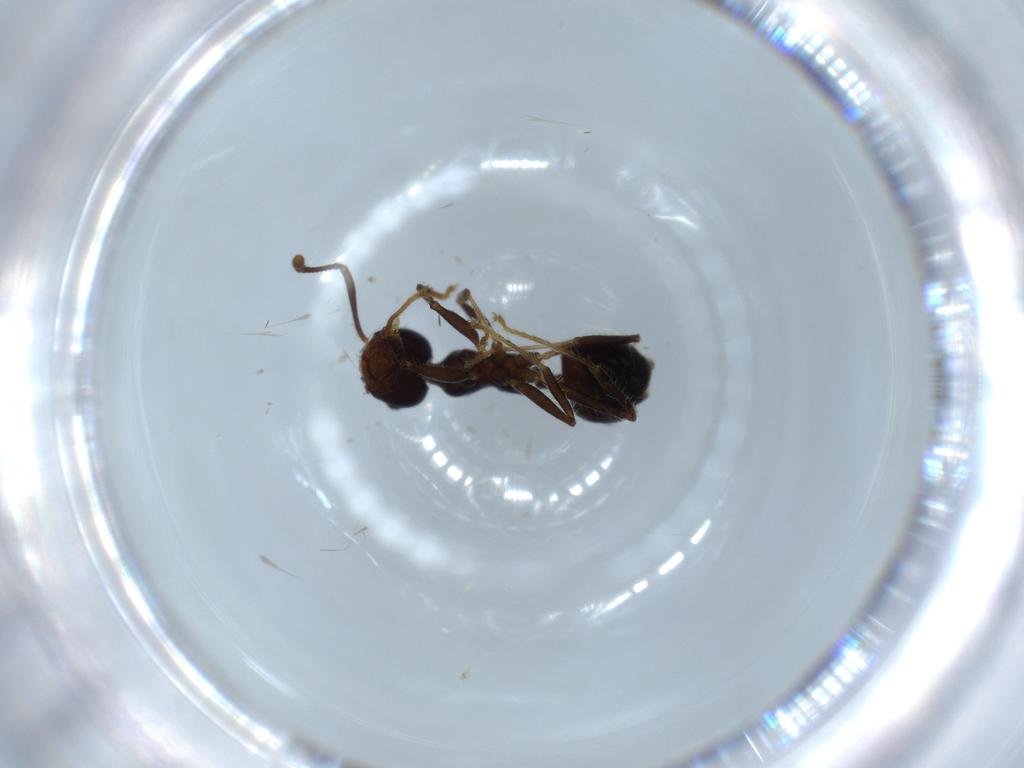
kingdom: Animalia
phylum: Arthropoda
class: Insecta
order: Hymenoptera
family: Formicidae
